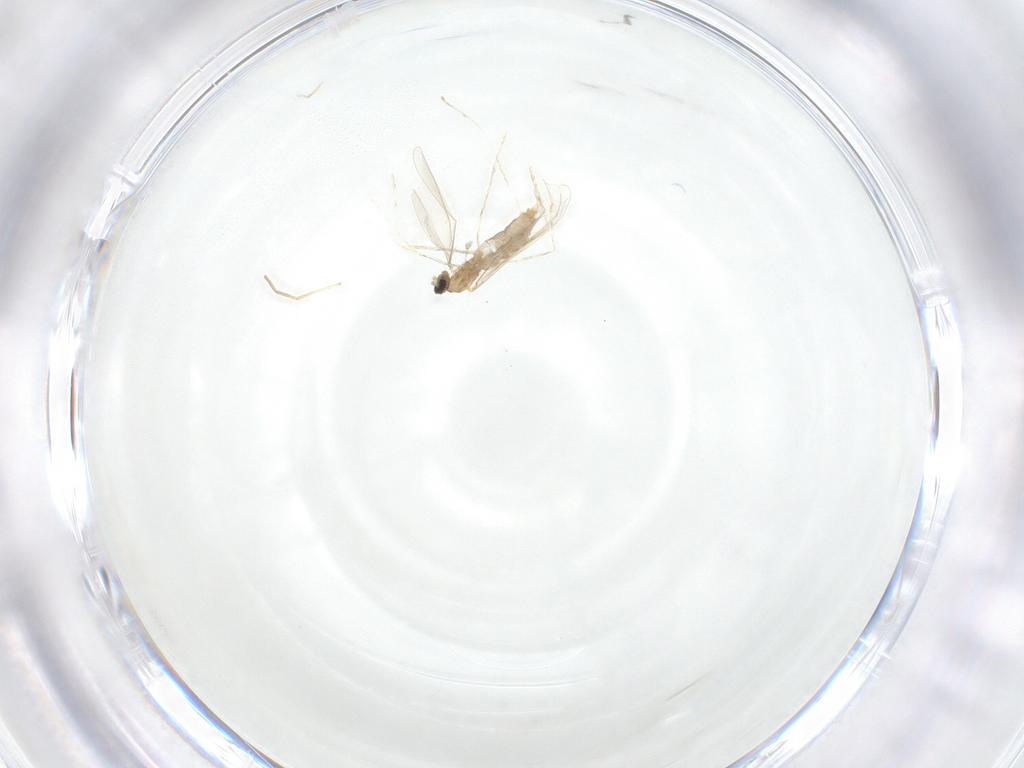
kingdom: Animalia
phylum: Arthropoda
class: Insecta
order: Diptera
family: Cecidomyiidae
